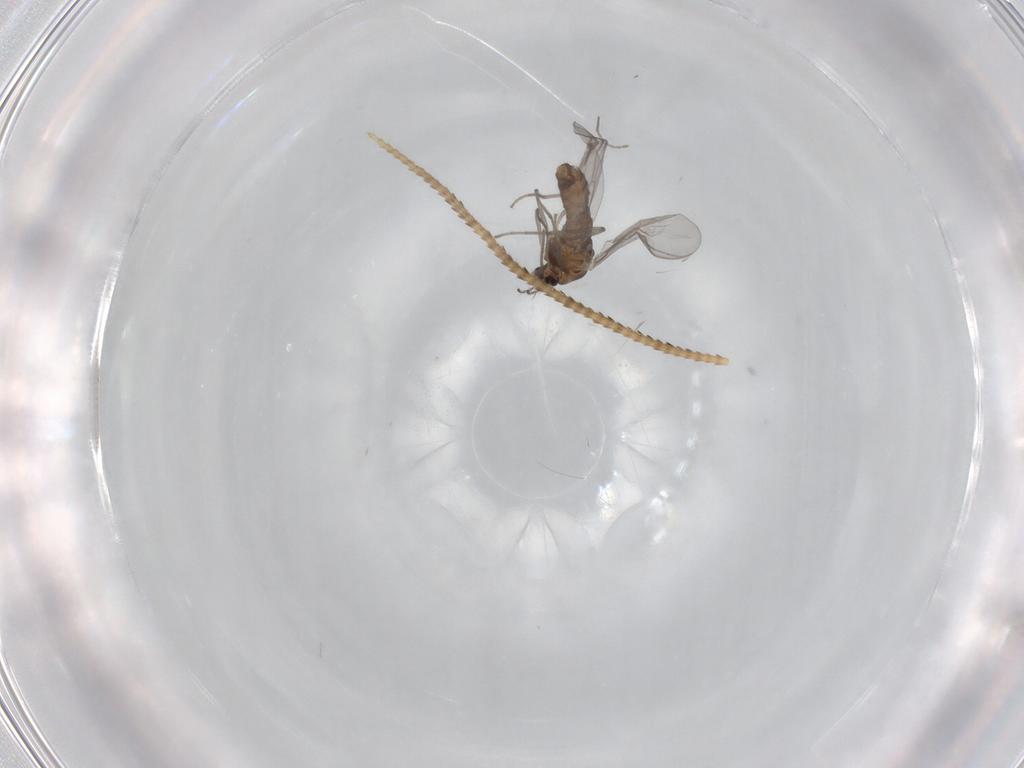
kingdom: Animalia
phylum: Arthropoda
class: Insecta
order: Diptera
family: Chironomidae
